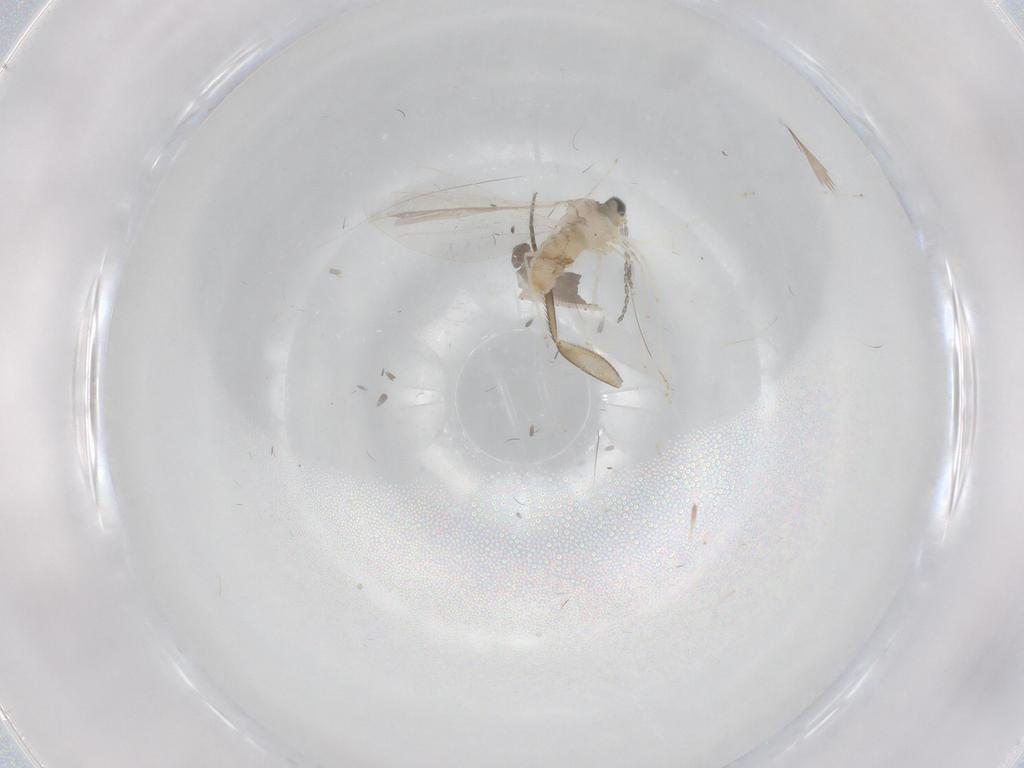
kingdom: Animalia
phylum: Arthropoda
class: Insecta
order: Diptera
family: Cecidomyiidae
